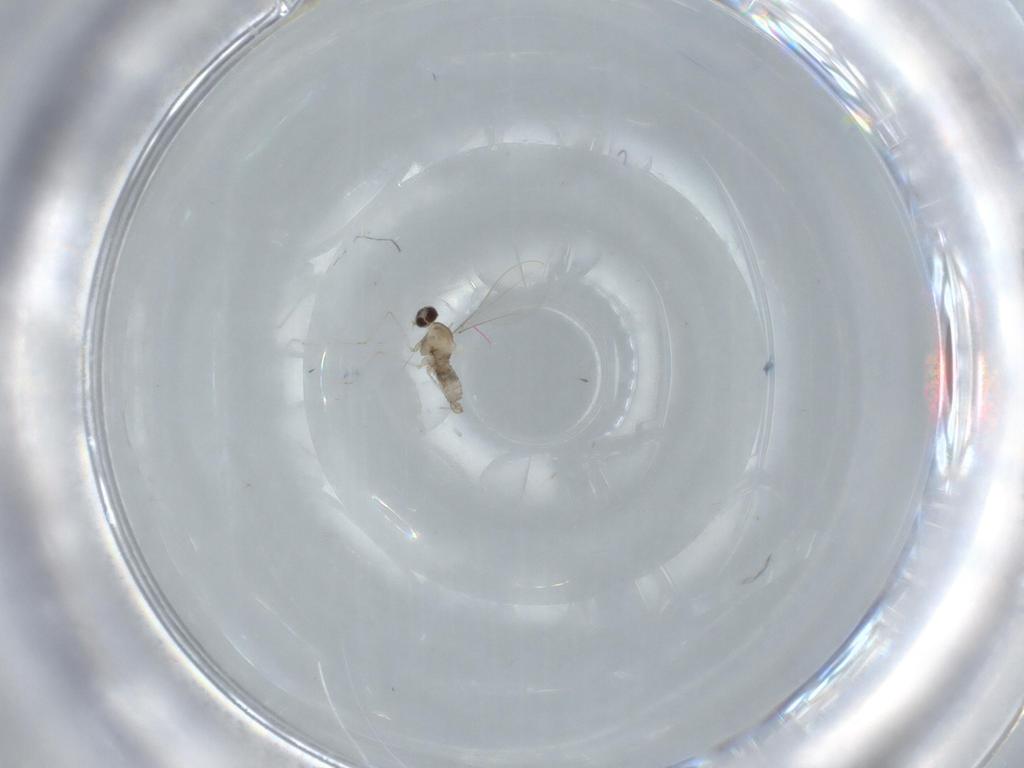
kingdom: Animalia
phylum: Arthropoda
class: Insecta
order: Diptera
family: Cecidomyiidae
